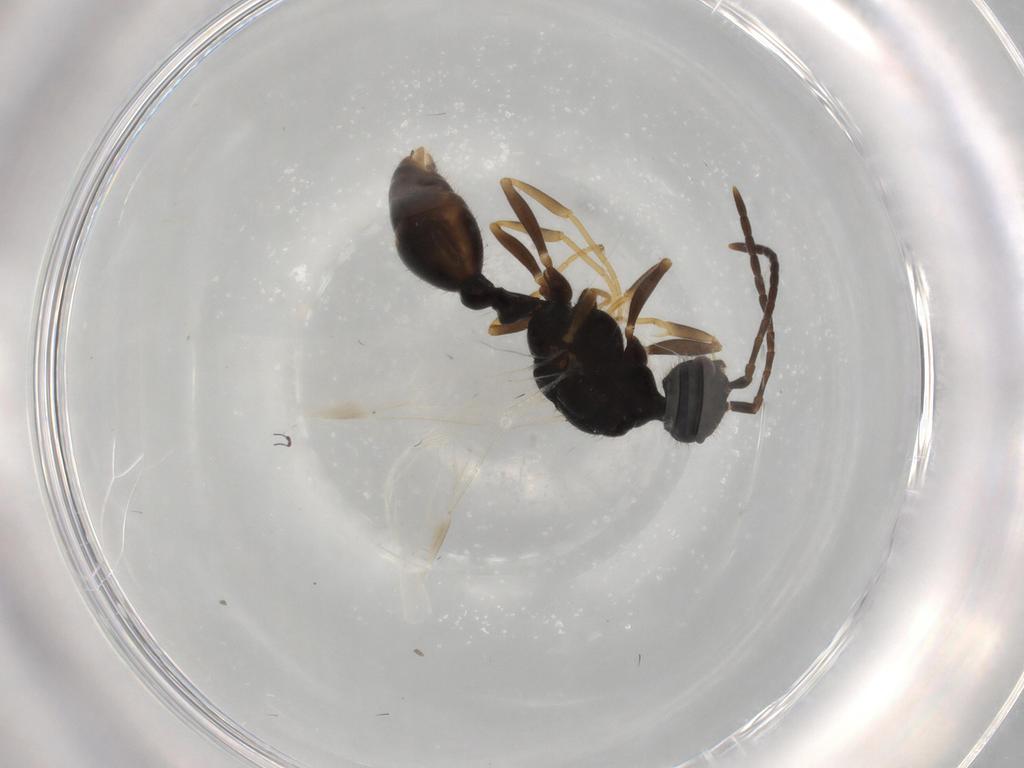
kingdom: Animalia
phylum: Arthropoda
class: Insecta
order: Hymenoptera
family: Formicidae
